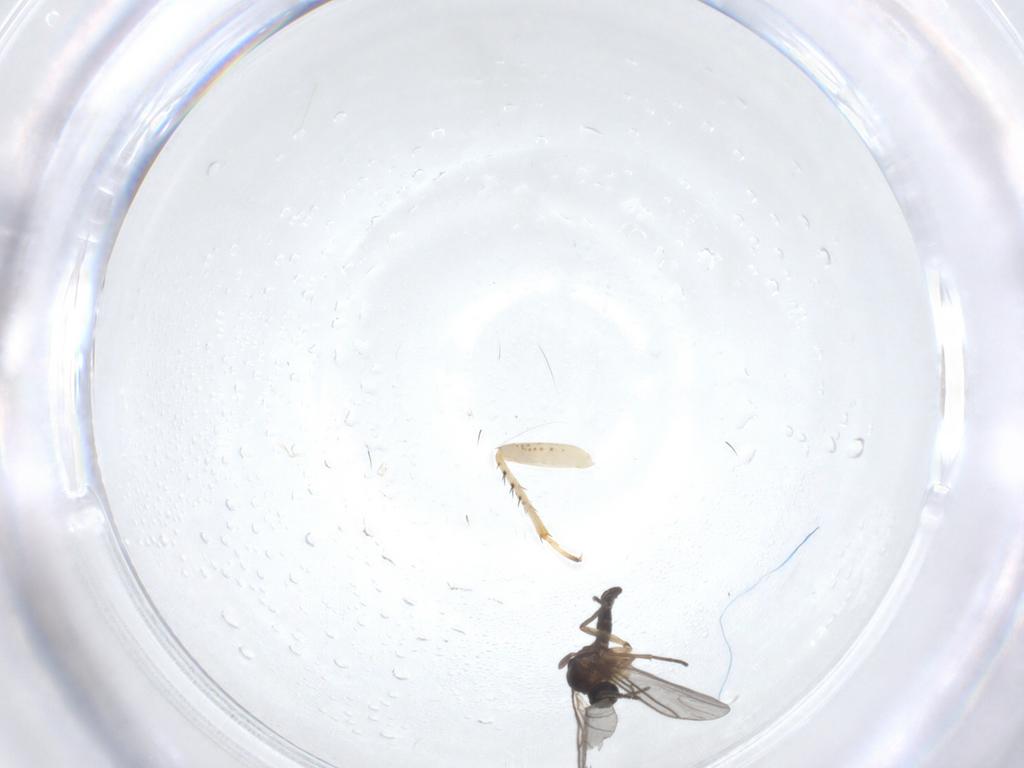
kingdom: Animalia
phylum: Arthropoda
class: Insecta
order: Diptera
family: Sciaridae
